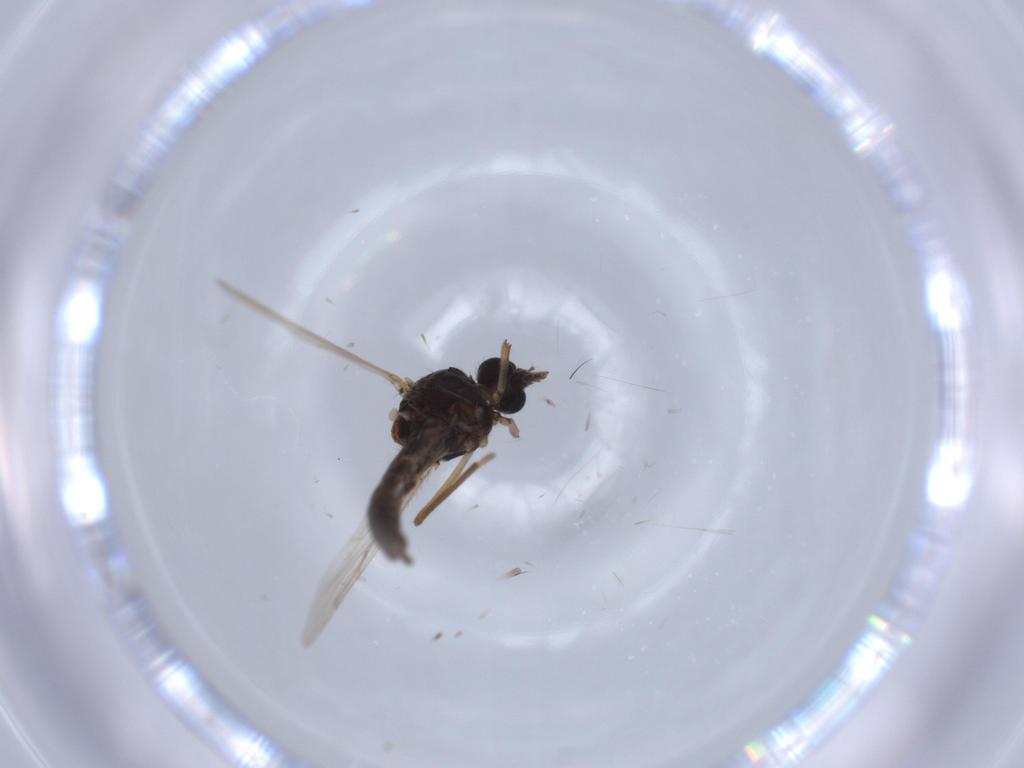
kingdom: Animalia
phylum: Arthropoda
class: Insecta
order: Diptera
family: Ceratopogonidae
